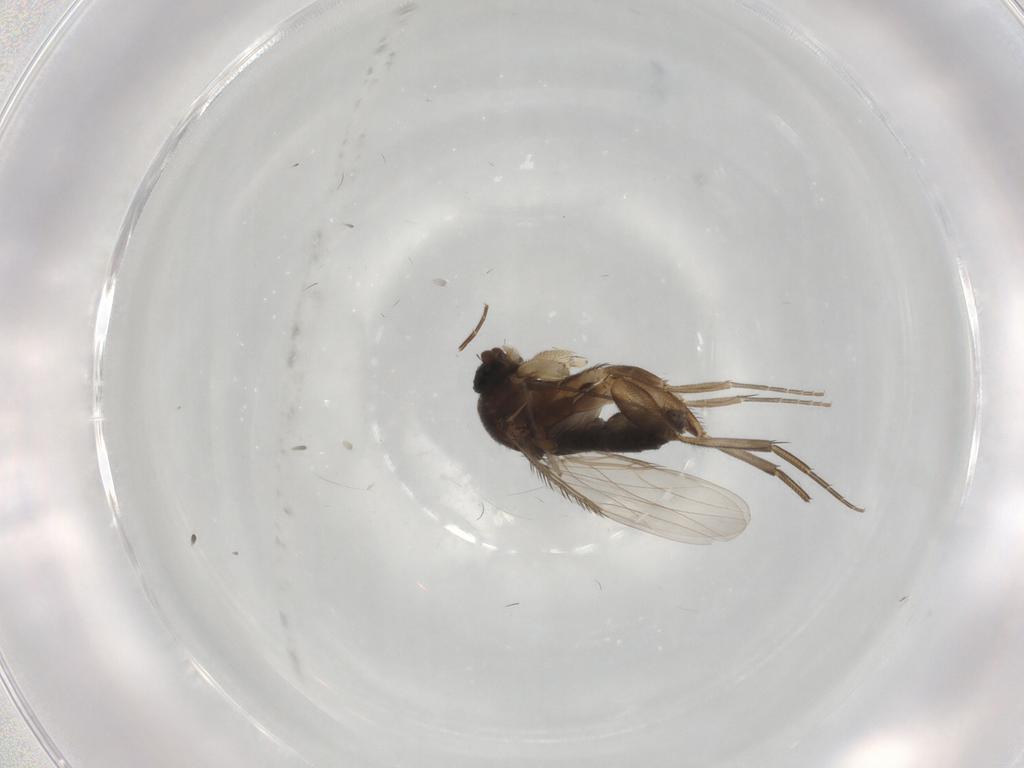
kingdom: Animalia
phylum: Arthropoda
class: Insecta
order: Diptera
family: Phoridae
